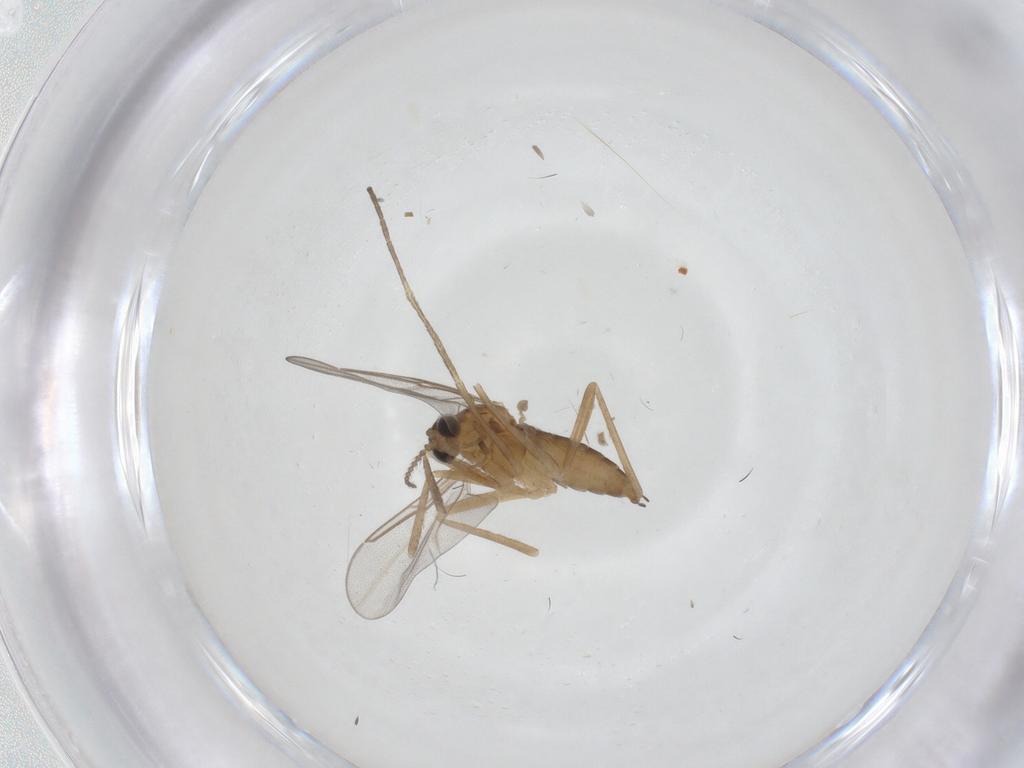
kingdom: Animalia
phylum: Arthropoda
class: Insecta
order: Diptera
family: Cecidomyiidae
